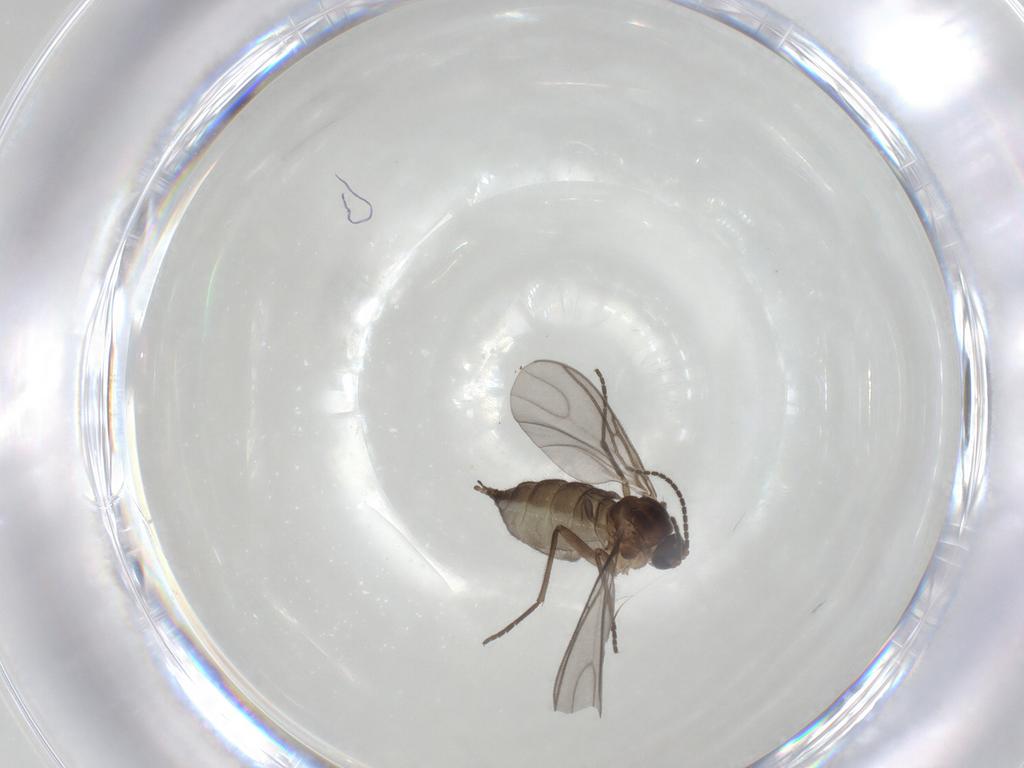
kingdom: Animalia
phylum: Arthropoda
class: Insecta
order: Diptera
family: Sciaridae
